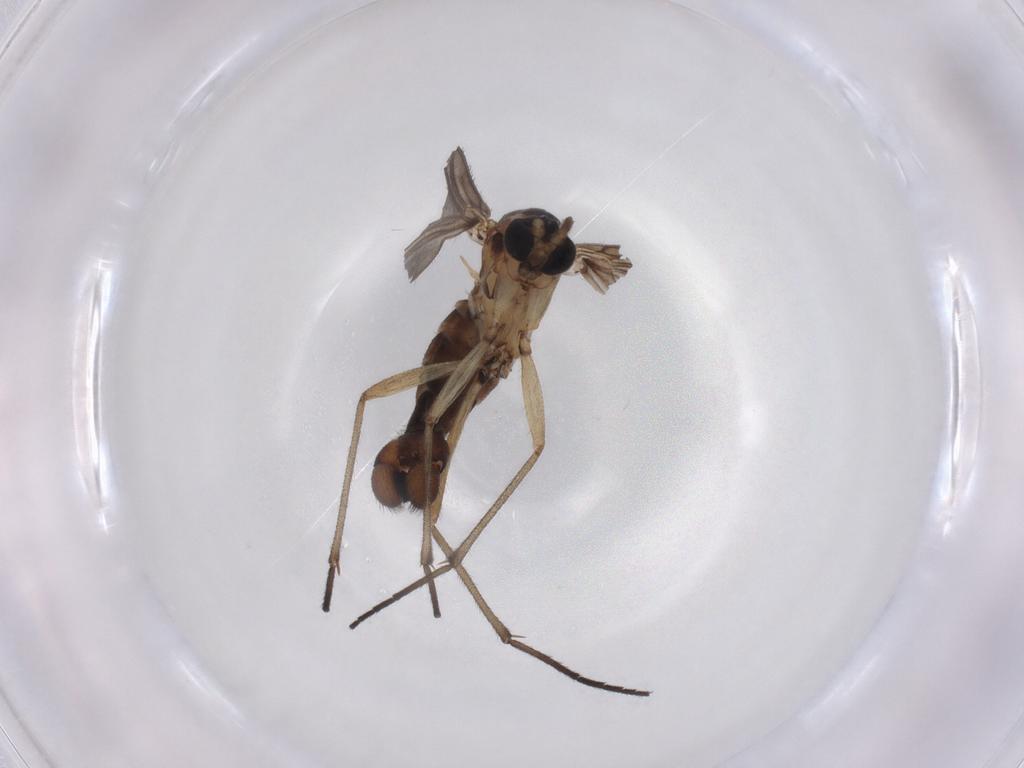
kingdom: Animalia
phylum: Arthropoda
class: Insecta
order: Diptera
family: Sciaridae
